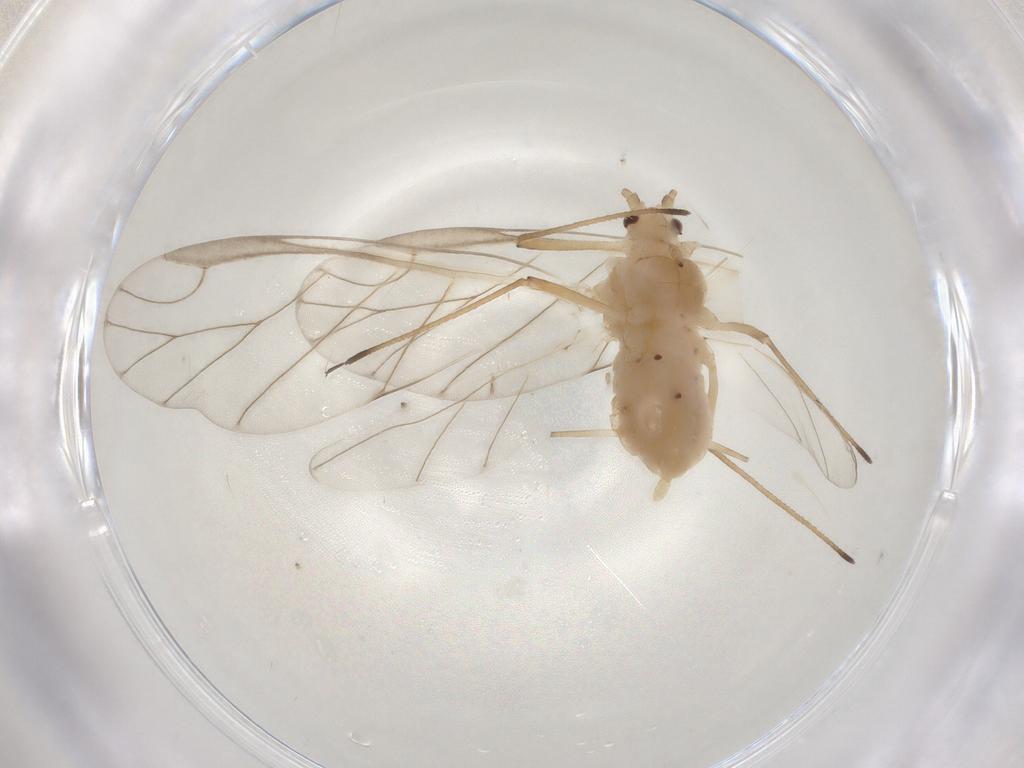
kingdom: Animalia
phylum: Arthropoda
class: Insecta
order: Hemiptera
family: Aphididae
